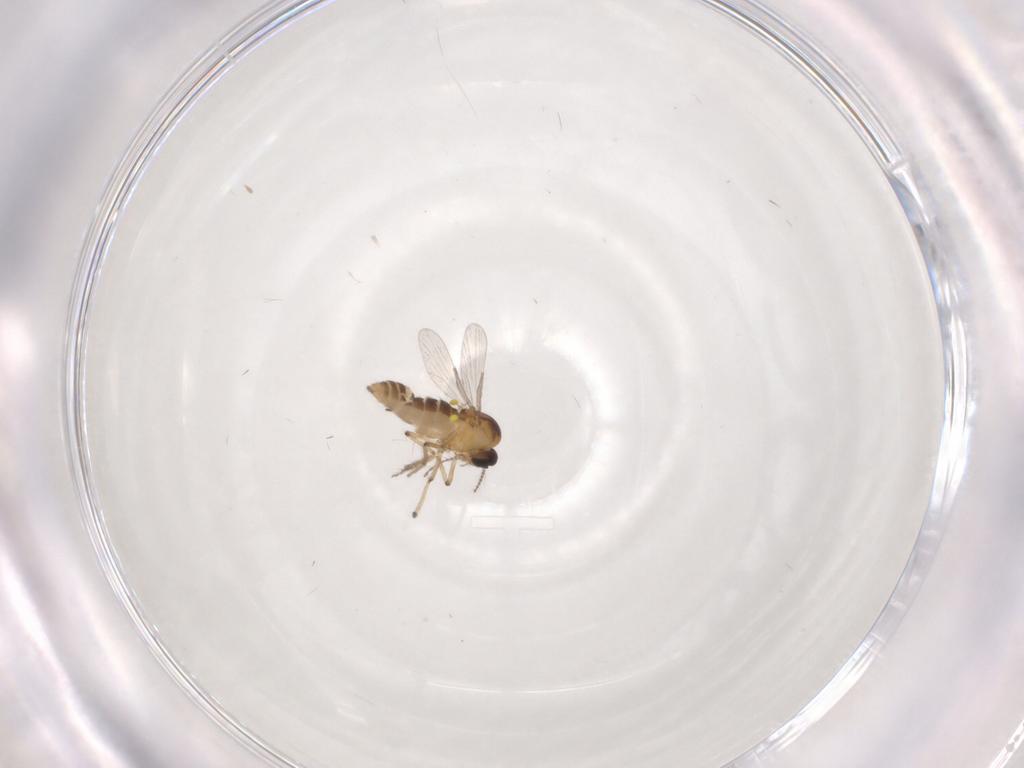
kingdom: Animalia
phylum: Arthropoda
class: Insecta
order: Diptera
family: Ceratopogonidae
